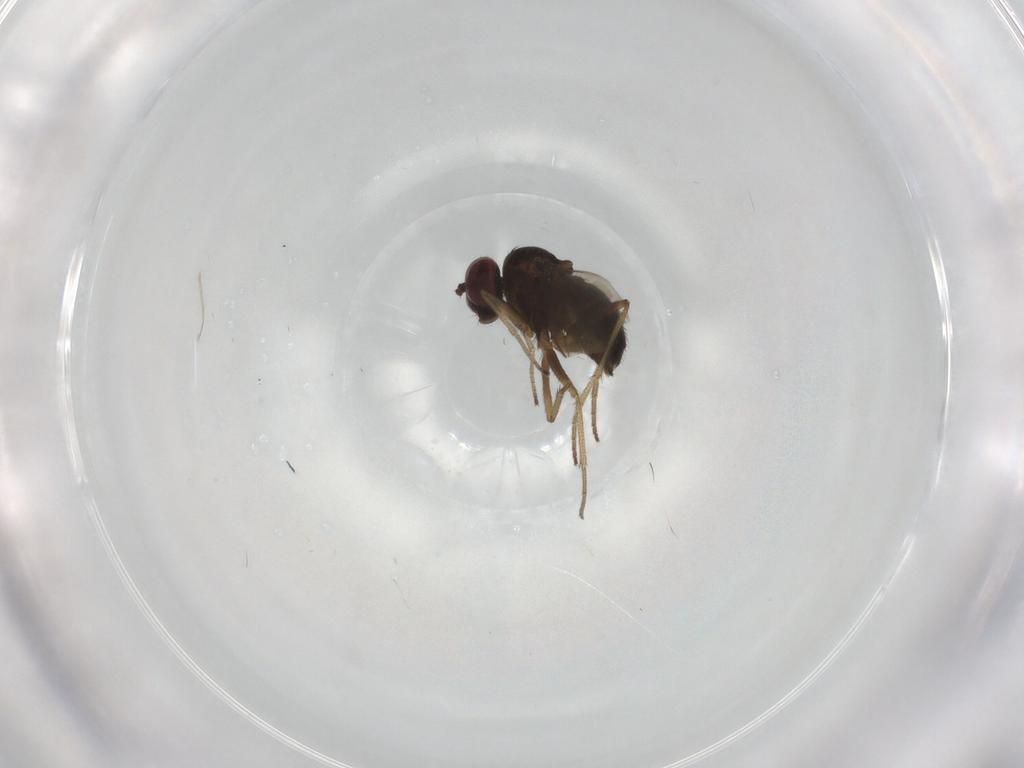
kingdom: Animalia
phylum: Arthropoda
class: Insecta
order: Diptera
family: Dolichopodidae
